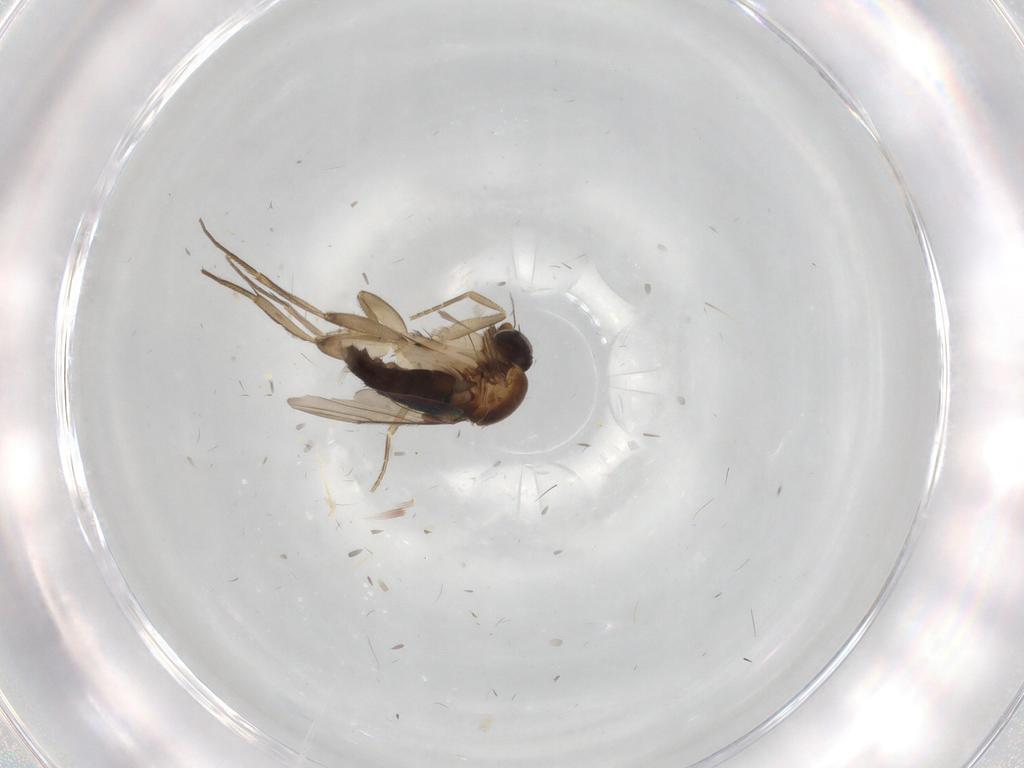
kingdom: Animalia
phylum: Arthropoda
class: Insecta
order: Diptera
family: Phoridae
